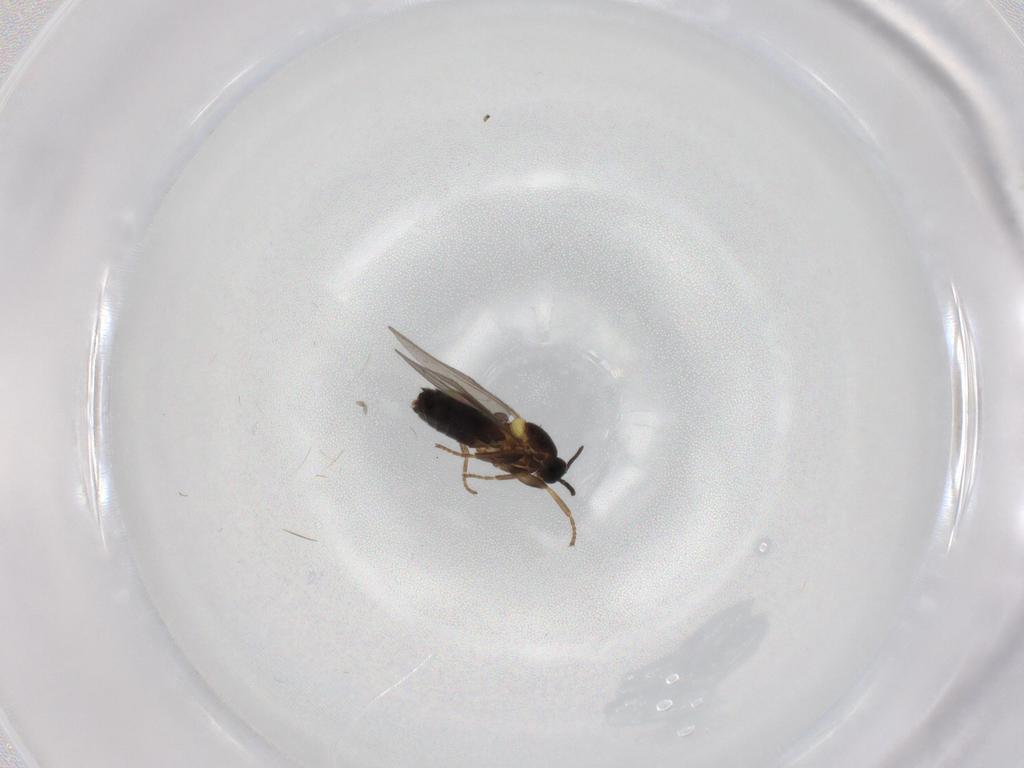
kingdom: Animalia
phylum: Arthropoda
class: Insecta
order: Diptera
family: Scatopsidae
